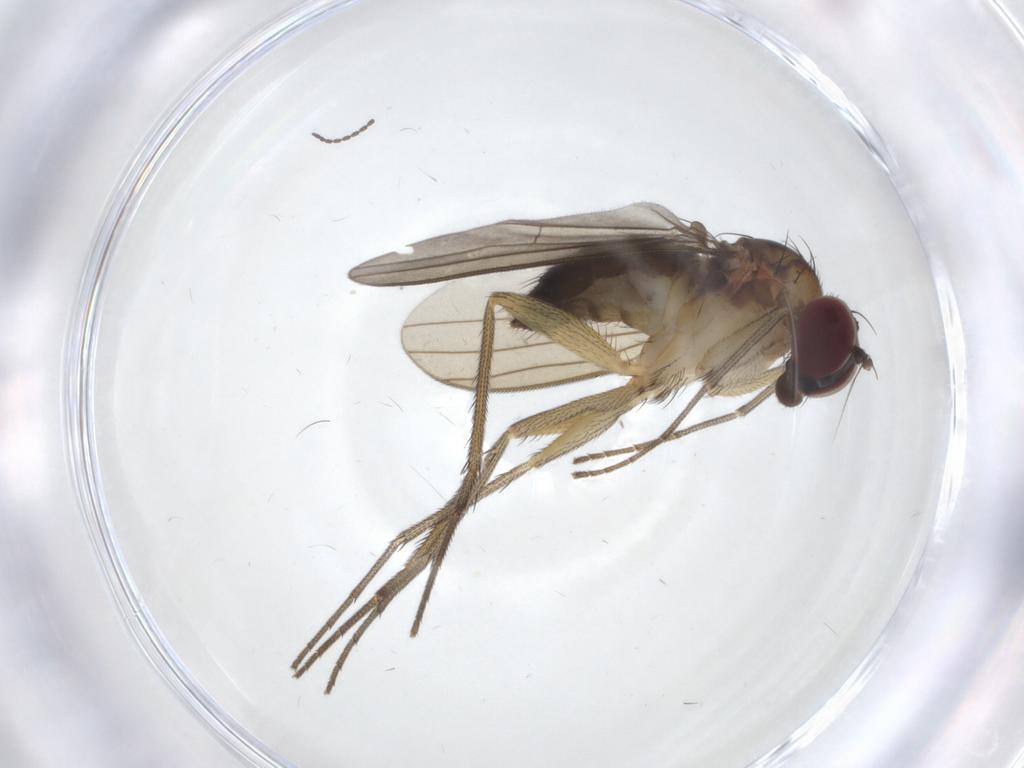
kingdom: Animalia
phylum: Arthropoda
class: Insecta
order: Diptera
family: Dolichopodidae
